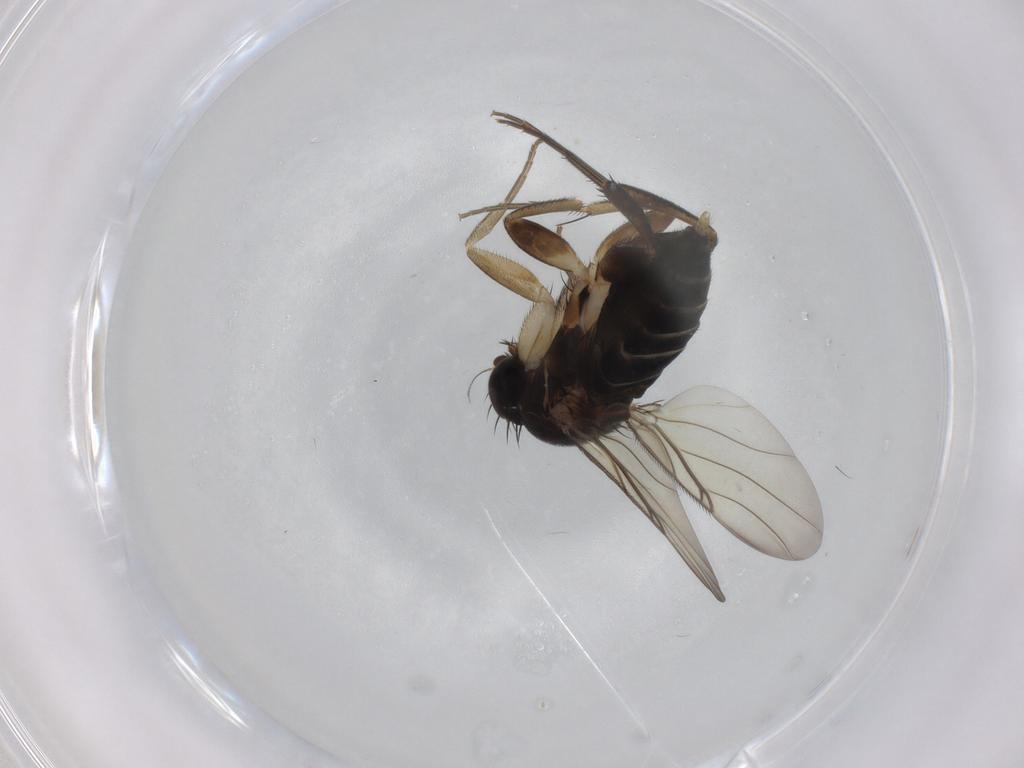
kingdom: Animalia
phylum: Arthropoda
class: Insecta
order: Diptera
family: Phoridae
